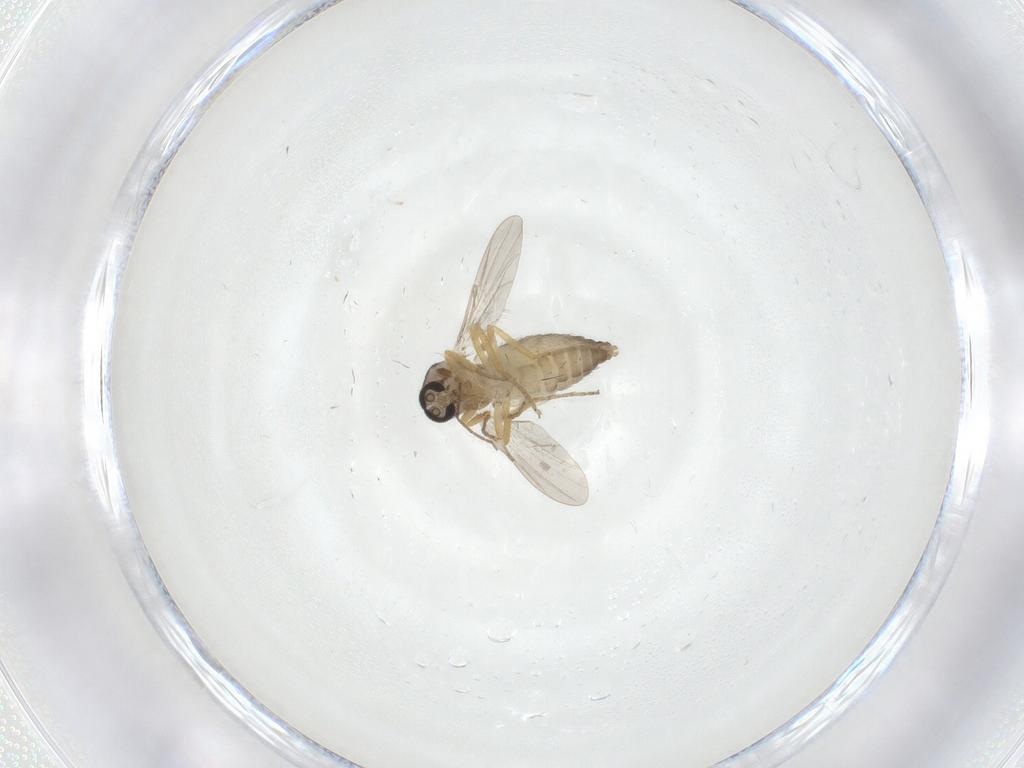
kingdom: Animalia
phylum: Arthropoda
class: Insecta
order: Diptera
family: Ceratopogonidae
